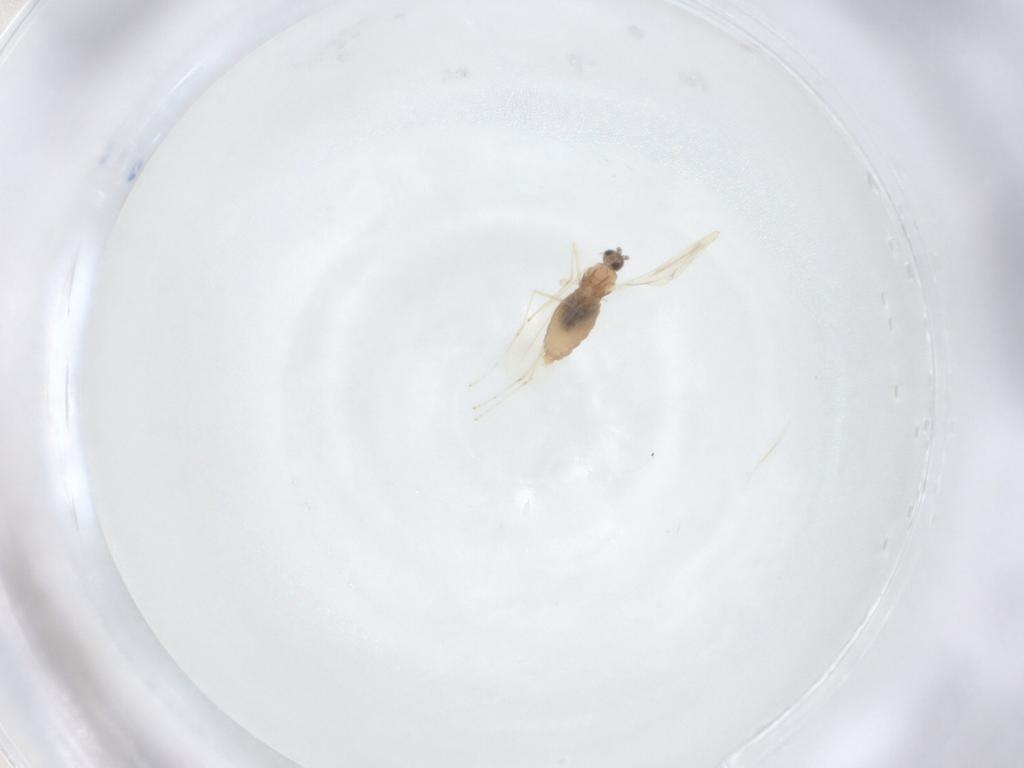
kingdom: Animalia
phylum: Arthropoda
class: Insecta
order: Diptera
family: Cecidomyiidae
